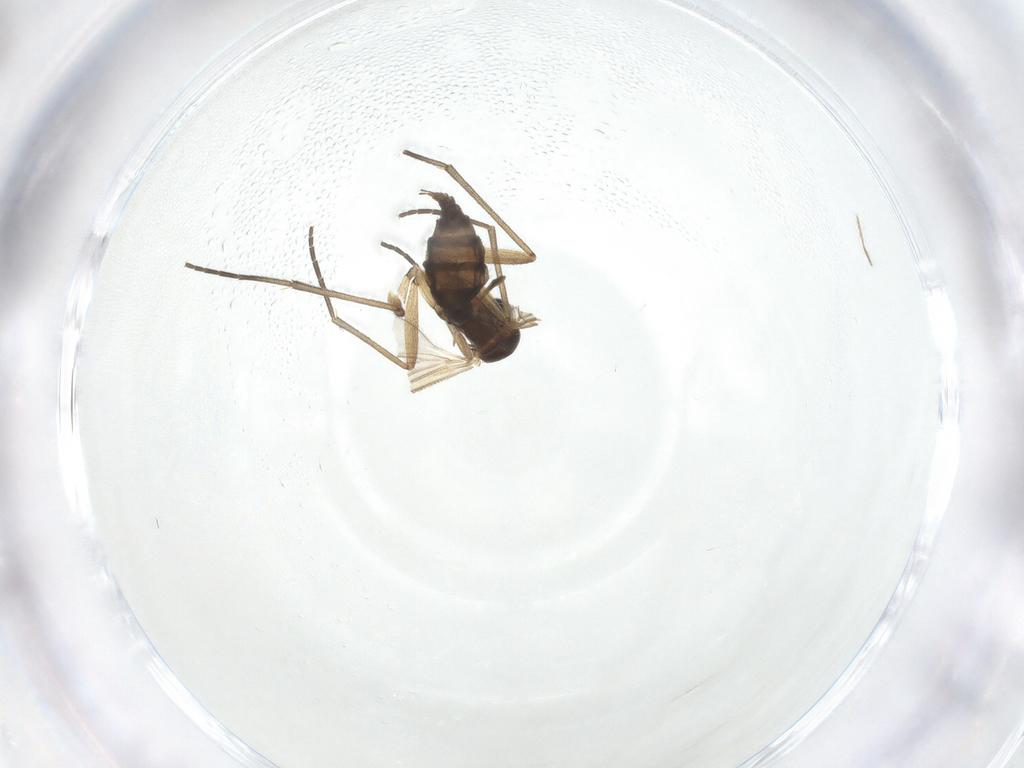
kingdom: Animalia
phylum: Arthropoda
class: Insecta
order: Diptera
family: Sciaridae
